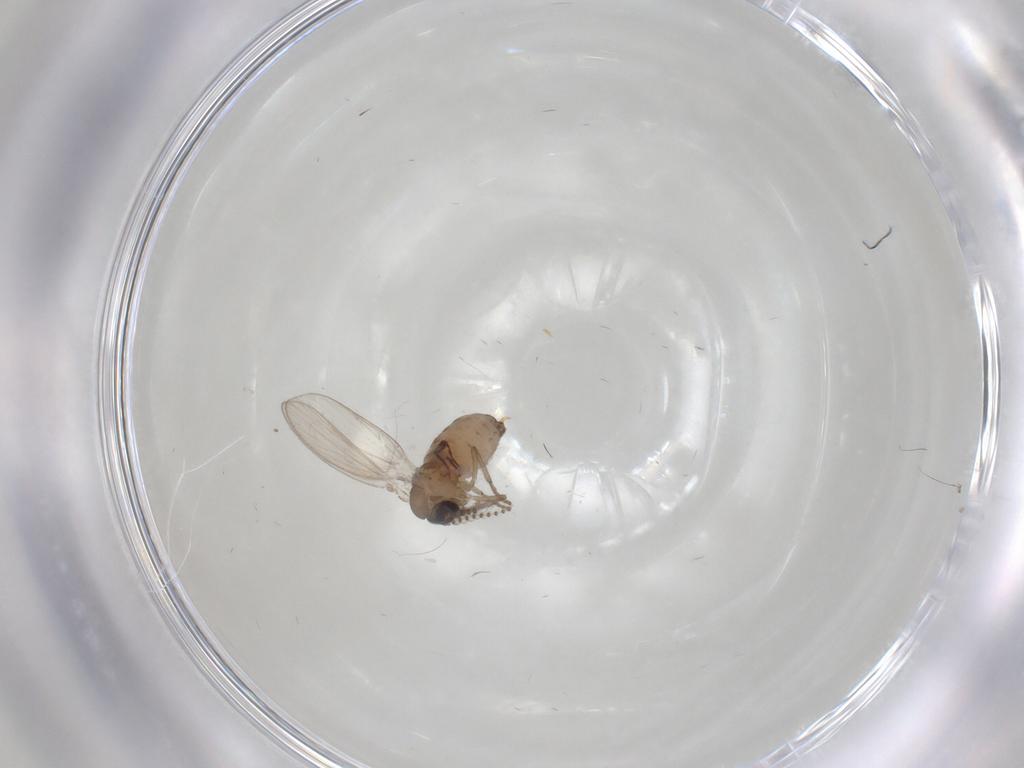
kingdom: Animalia
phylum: Arthropoda
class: Insecta
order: Diptera
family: Psychodidae
